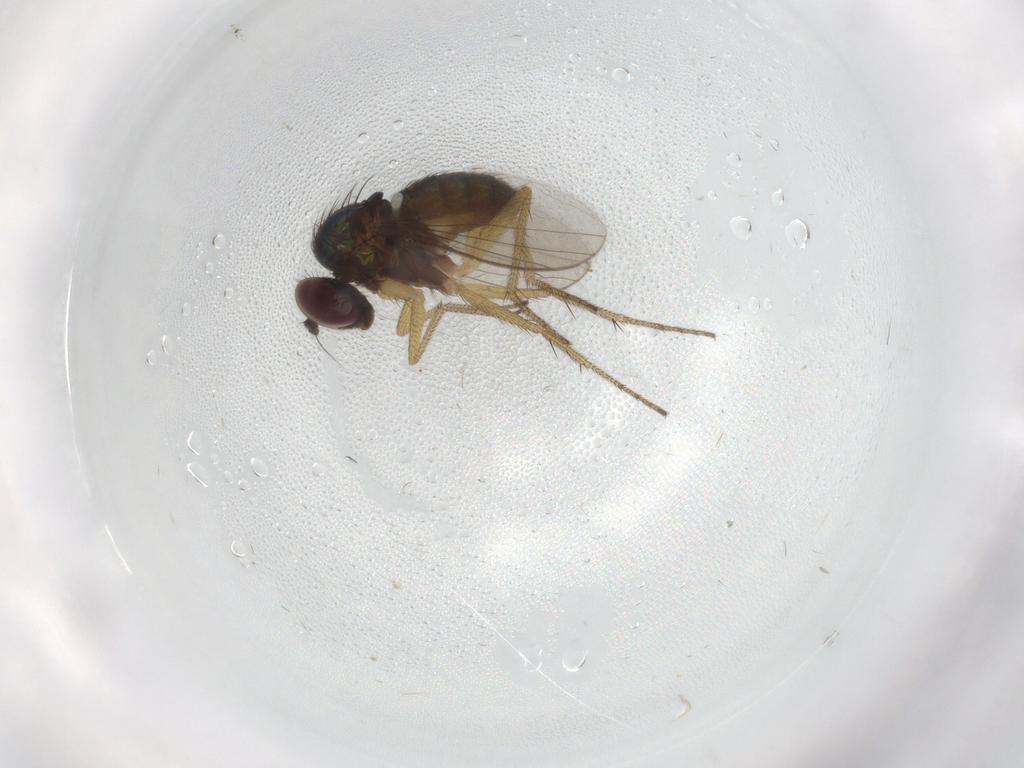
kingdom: Animalia
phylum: Arthropoda
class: Insecta
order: Diptera
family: Sciaridae
